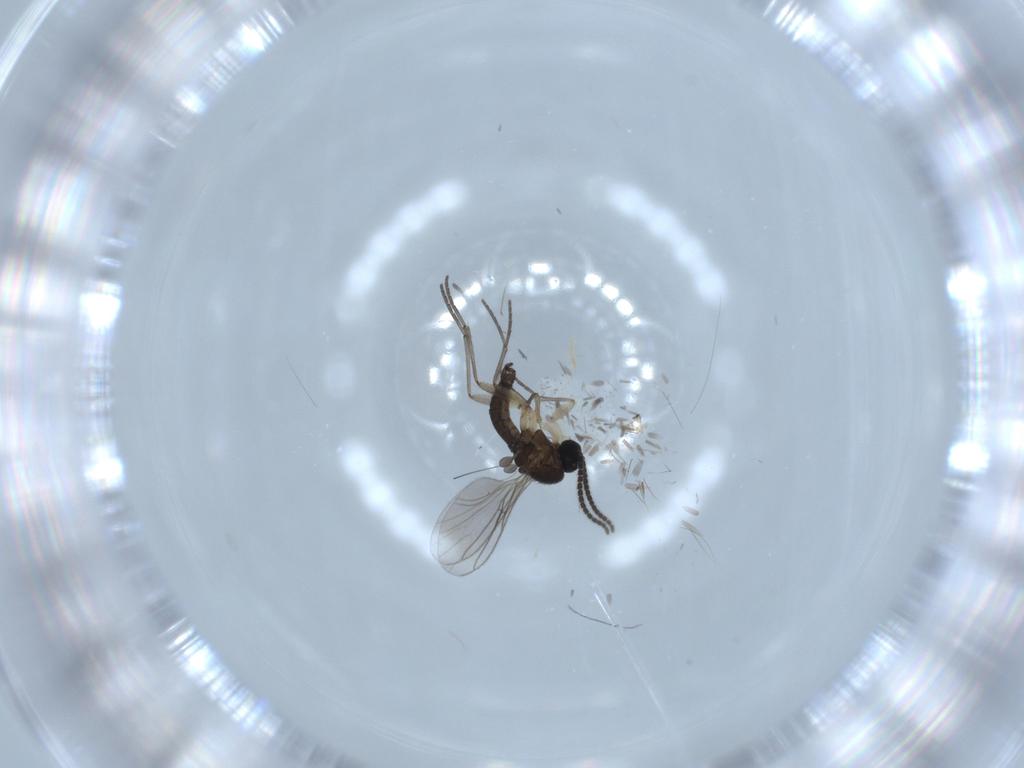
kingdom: Animalia
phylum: Arthropoda
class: Insecta
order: Diptera
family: Sciaridae
